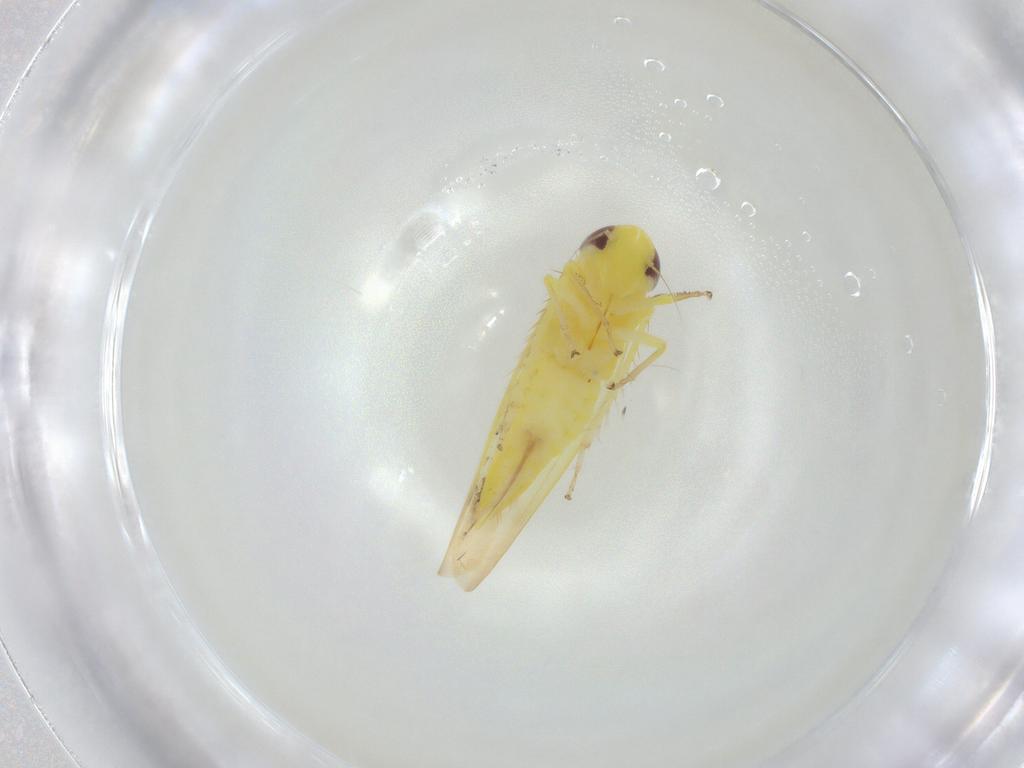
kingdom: Animalia
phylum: Arthropoda
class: Insecta
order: Hemiptera
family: Cicadellidae
